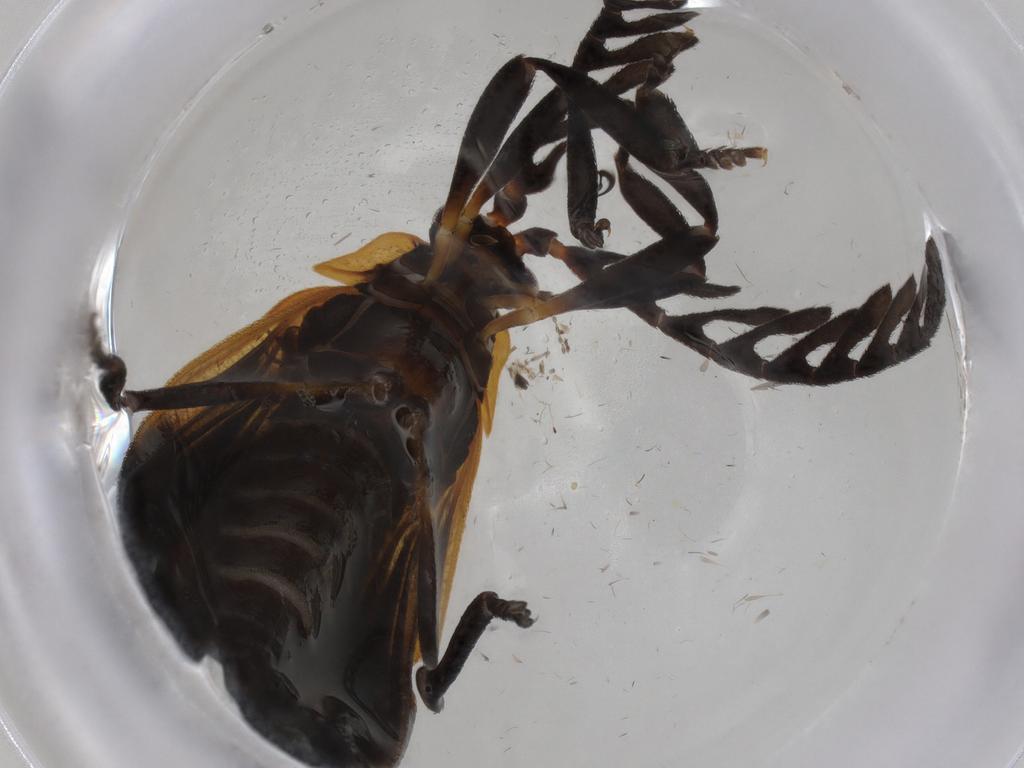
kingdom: Animalia
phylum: Arthropoda
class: Insecta
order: Coleoptera
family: Lycidae
